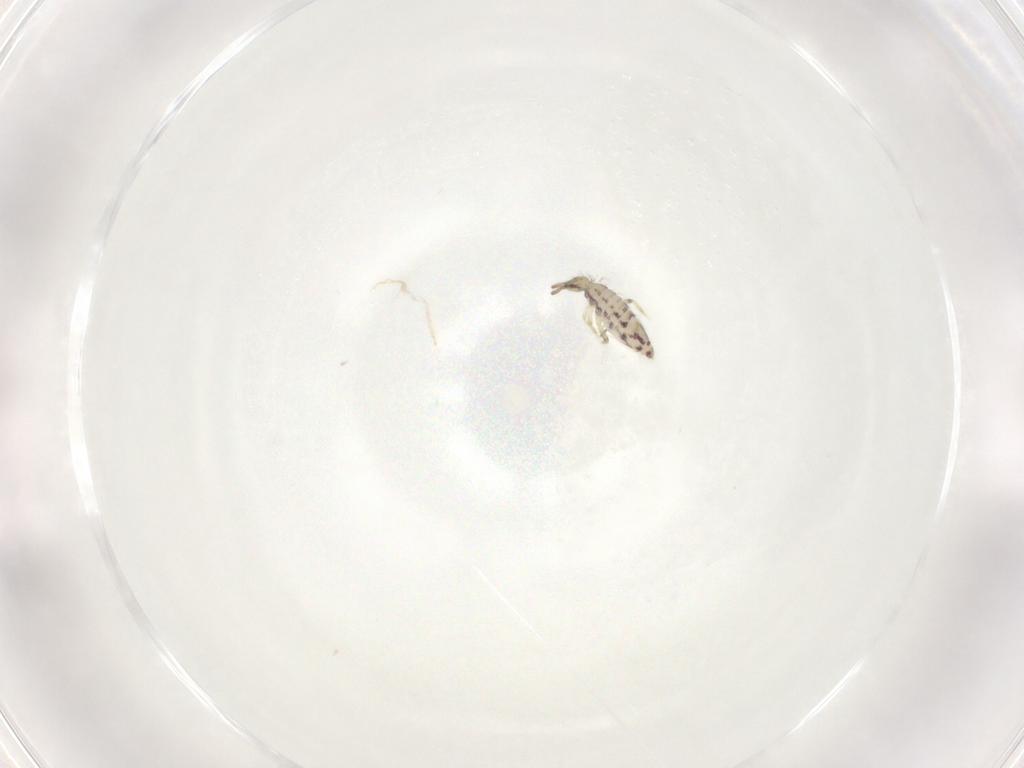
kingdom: Animalia
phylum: Arthropoda
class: Collembola
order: Entomobryomorpha
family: Entomobryidae
